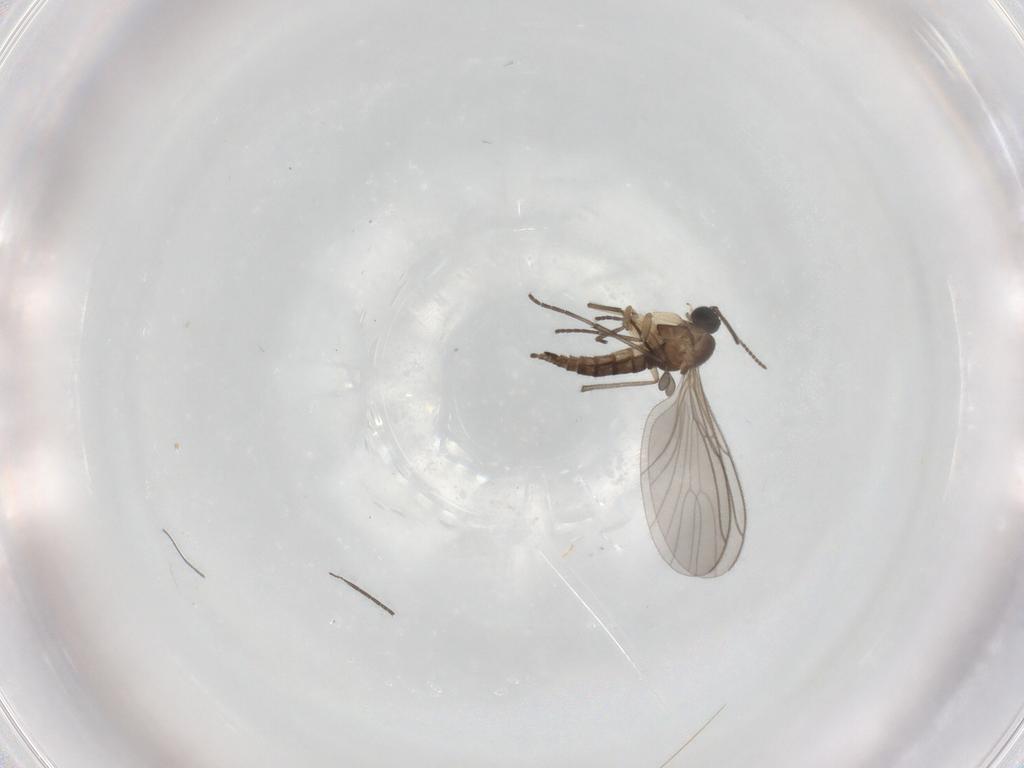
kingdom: Animalia
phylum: Arthropoda
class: Insecta
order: Diptera
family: Sciaridae
